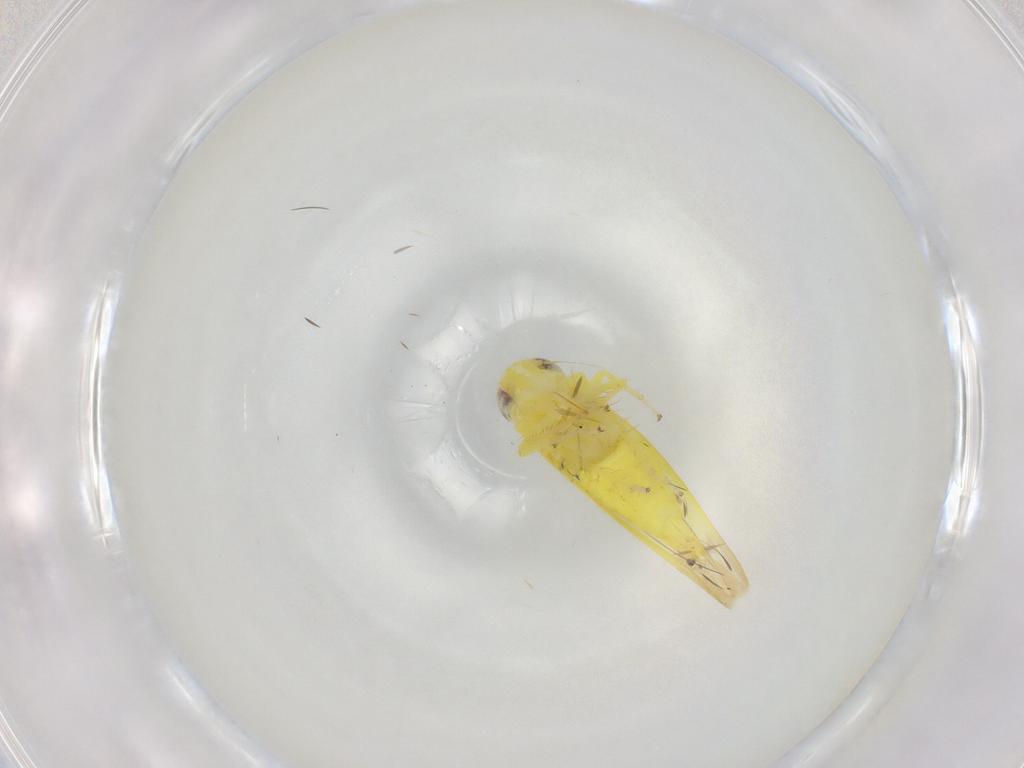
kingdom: Animalia
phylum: Arthropoda
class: Insecta
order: Hemiptera
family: Cicadellidae
